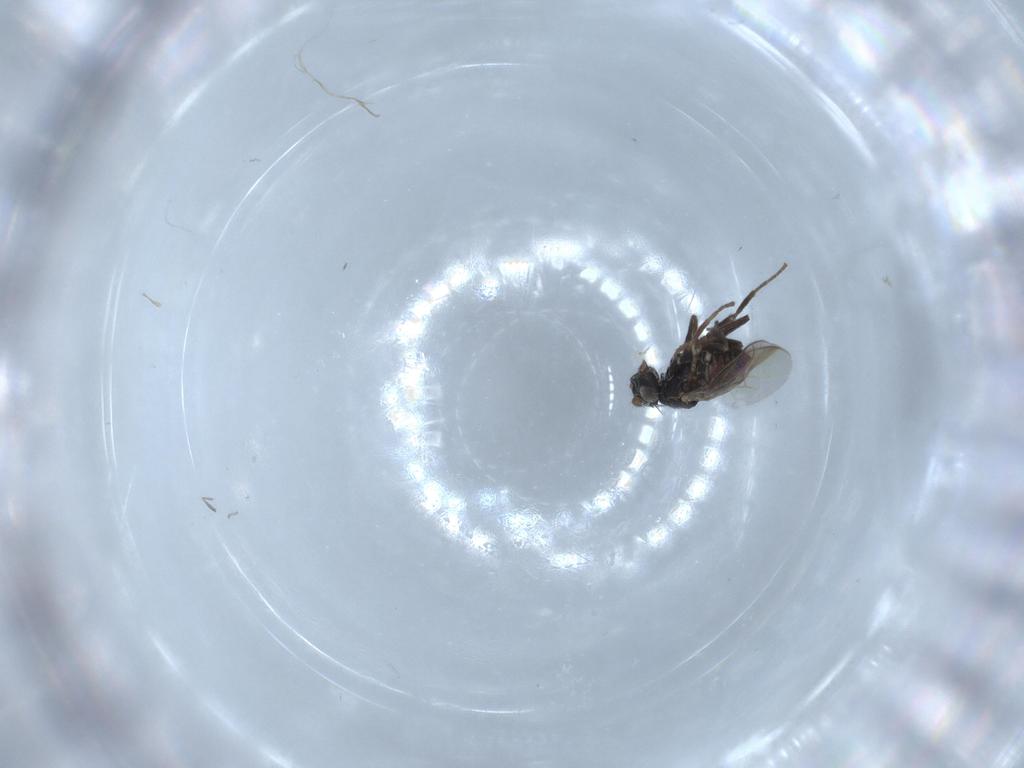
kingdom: Animalia
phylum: Arthropoda
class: Insecta
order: Diptera
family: Sphaeroceridae
